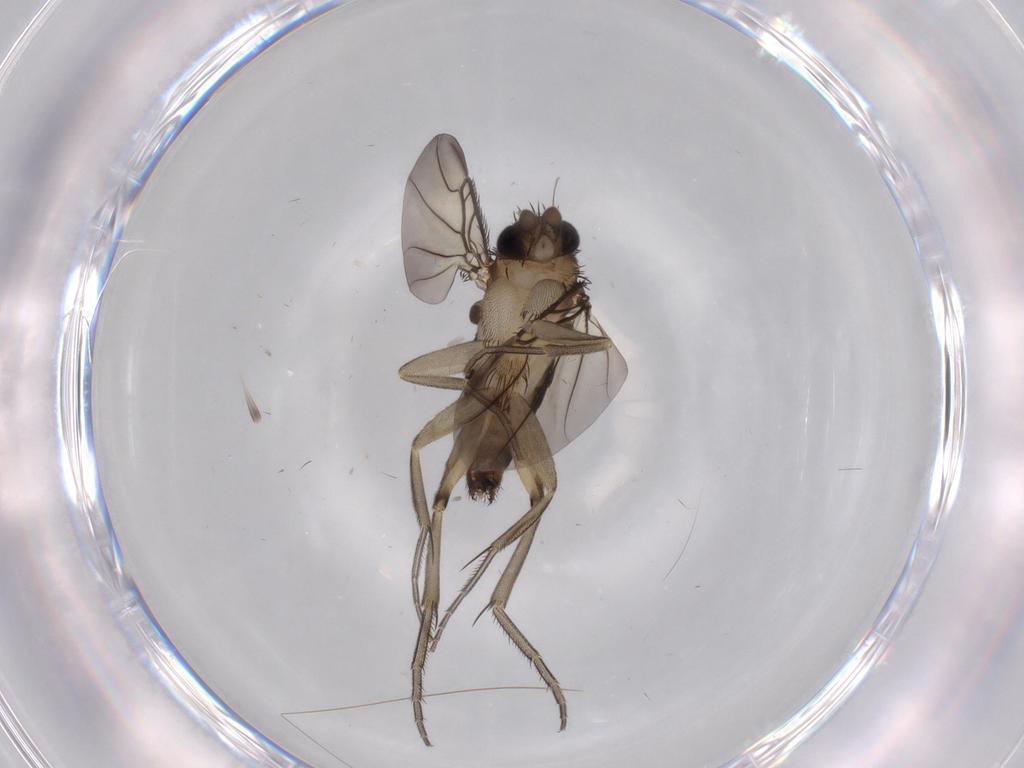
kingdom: Animalia
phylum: Arthropoda
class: Insecta
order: Diptera
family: Phoridae
